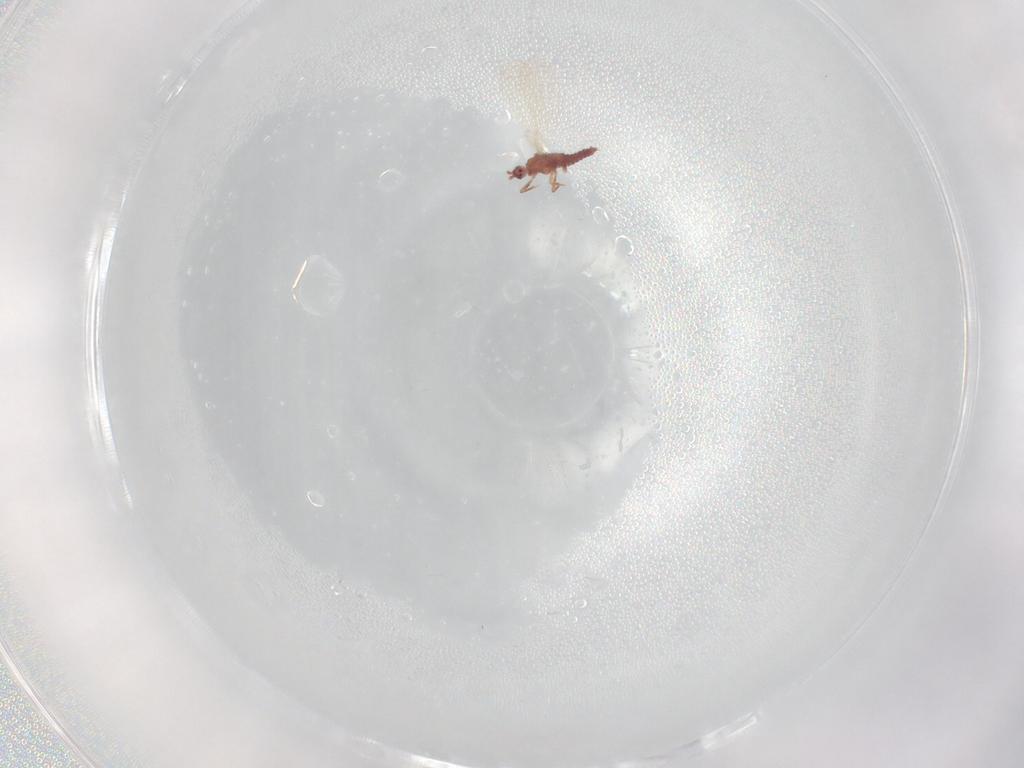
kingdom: Animalia
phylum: Arthropoda
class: Insecta
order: Hemiptera
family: Pseudococcidae
